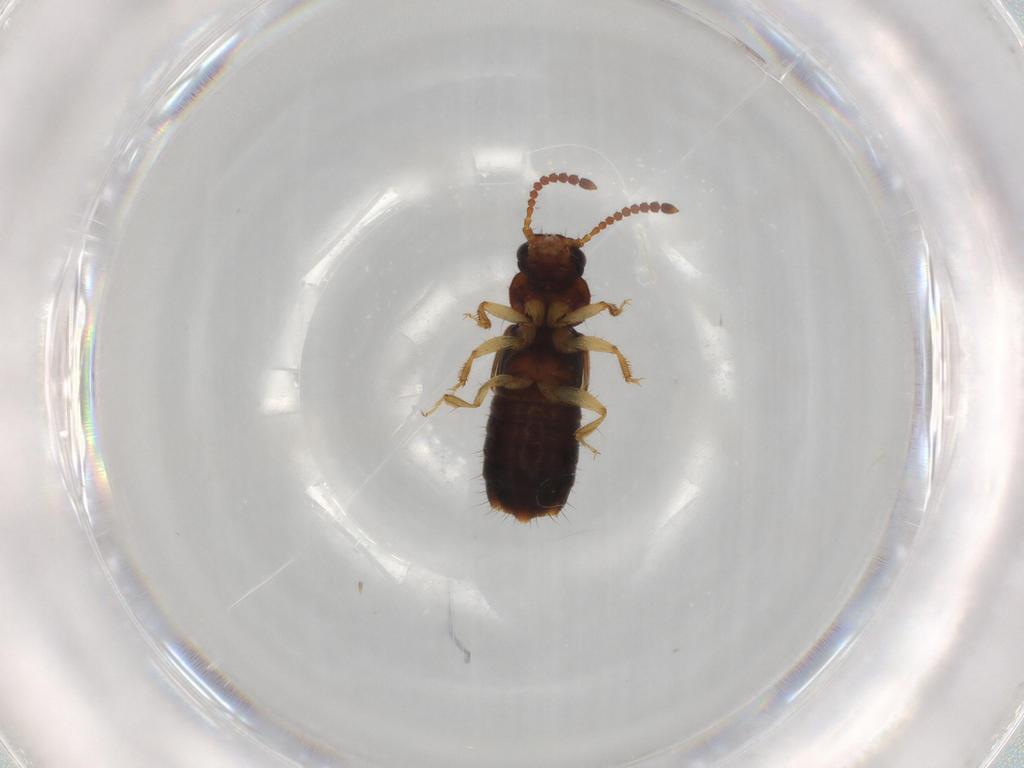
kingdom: Animalia
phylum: Arthropoda
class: Insecta
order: Coleoptera
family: Staphylinidae
